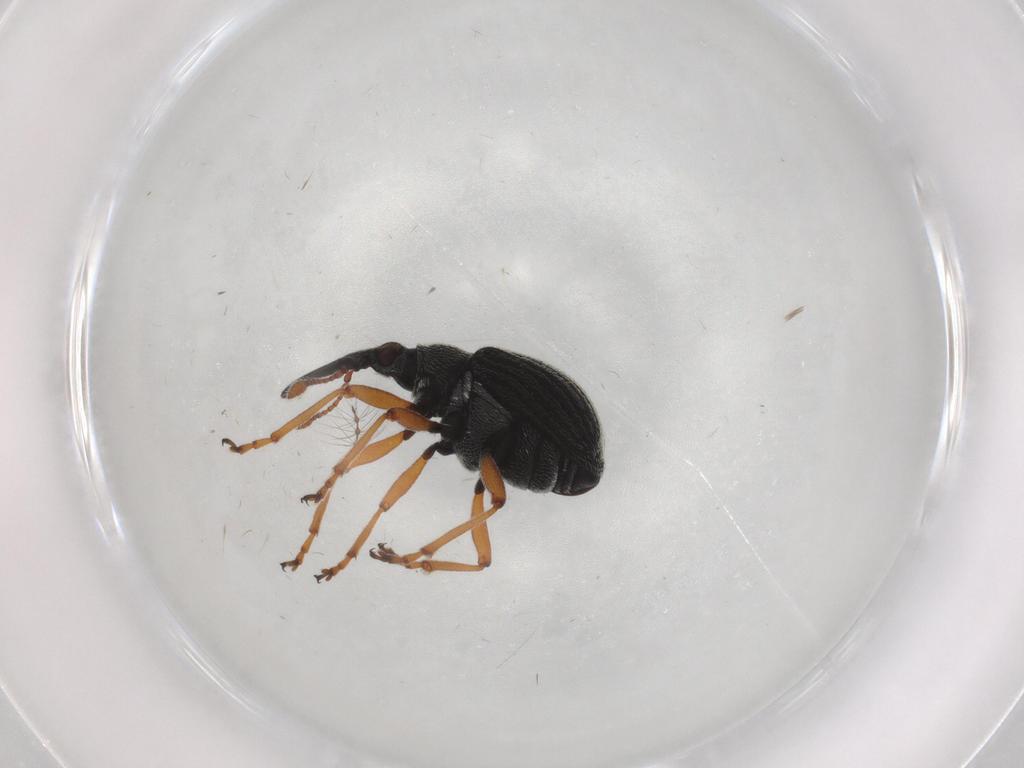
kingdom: Animalia
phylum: Arthropoda
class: Insecta
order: Coleoptera
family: Brentidae
